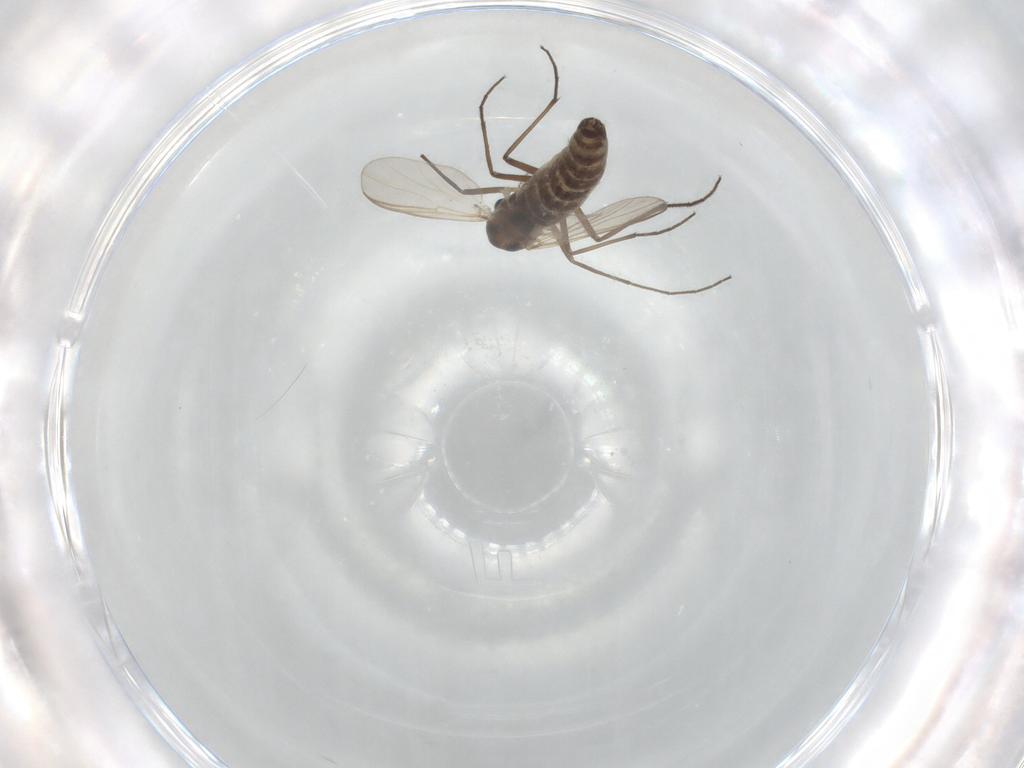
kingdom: Animalia
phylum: Arthropoda
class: Insecta
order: Diptera
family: Chironomidae
